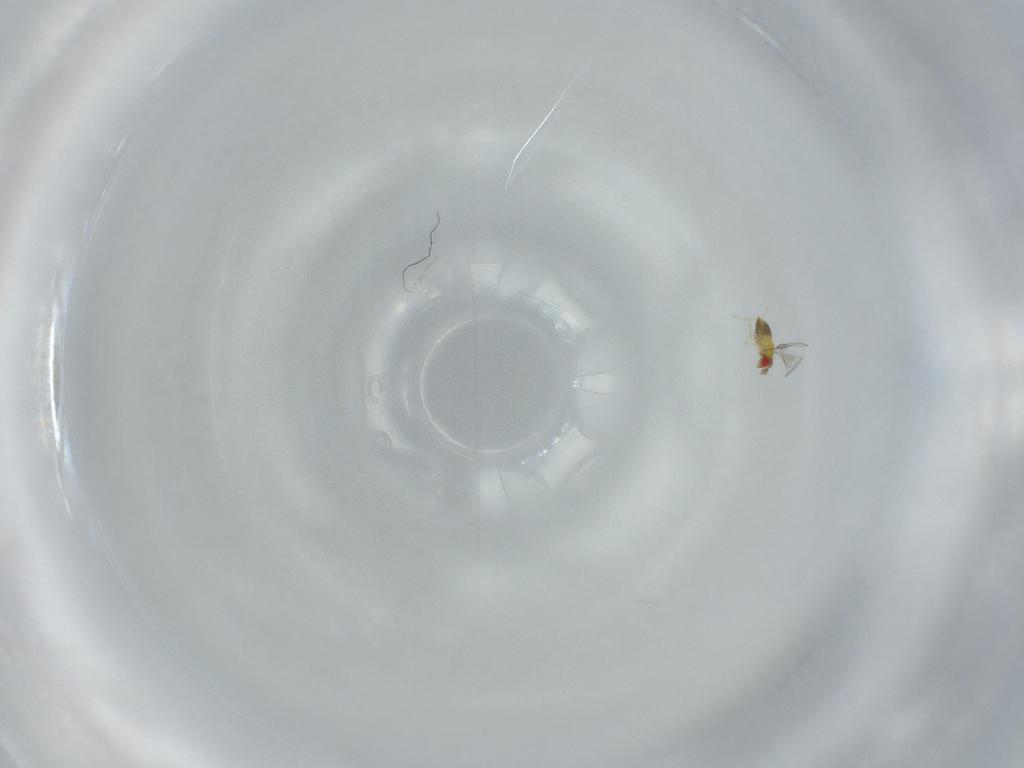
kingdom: Animalia
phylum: Arthropoda
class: Insecta
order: Hymenoptera
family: Trichogrammatidae
